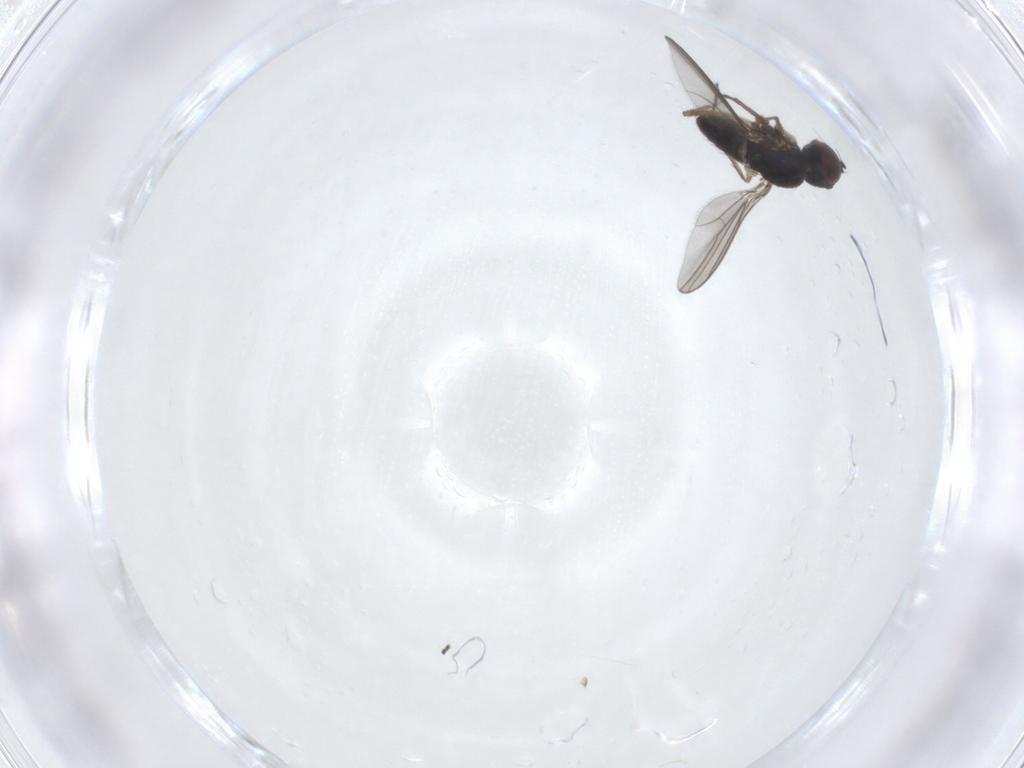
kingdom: Animalia
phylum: Arthropoda
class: Insecta
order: Diptera
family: Dolichopodidae
